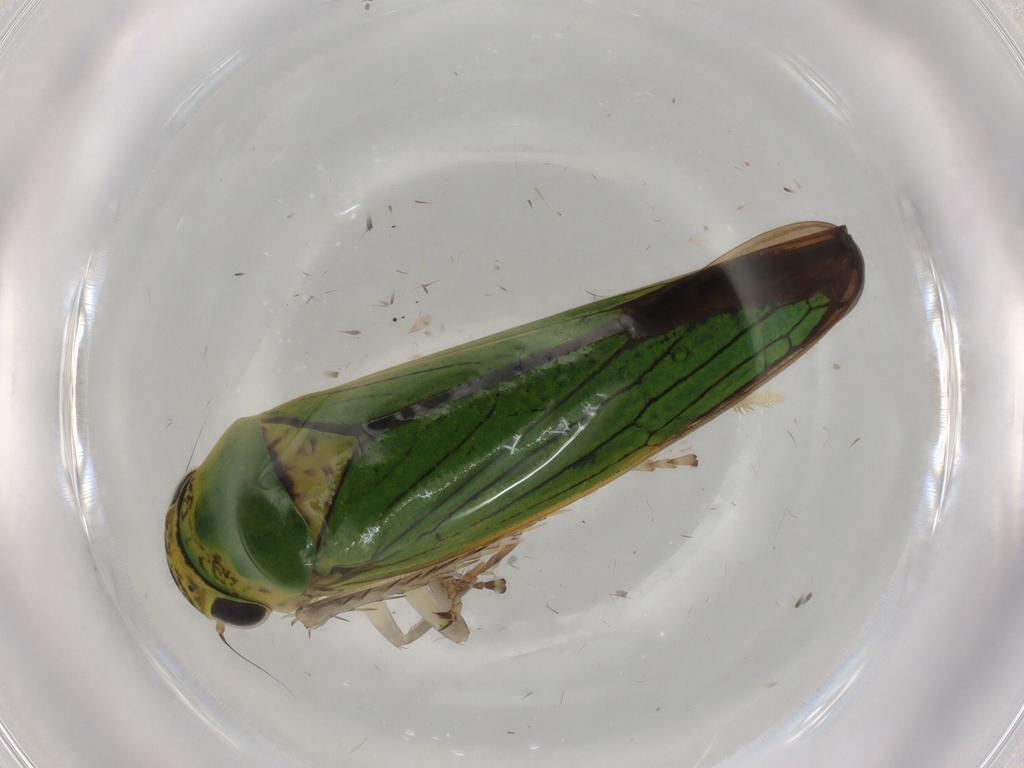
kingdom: Animalia
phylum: Arthropoda
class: Insecta
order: Hemiptera
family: Cicadellidae
